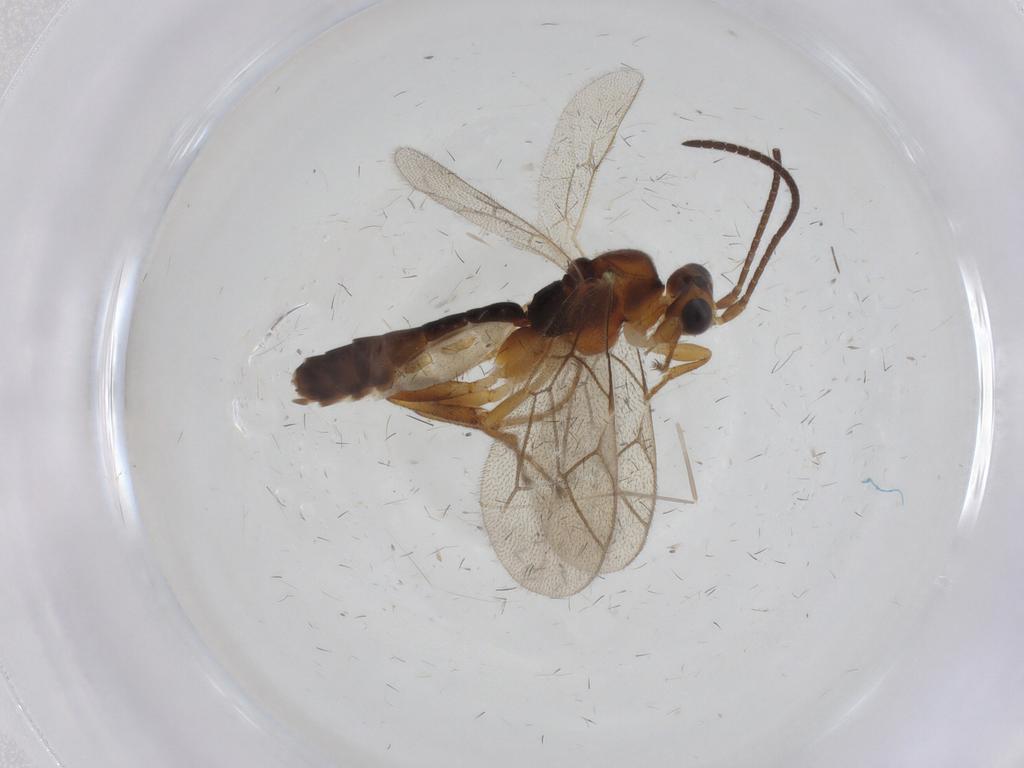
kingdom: Animalia
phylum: Arthropoda
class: Insecta
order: Hymenoptera
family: Ichneumonidae
